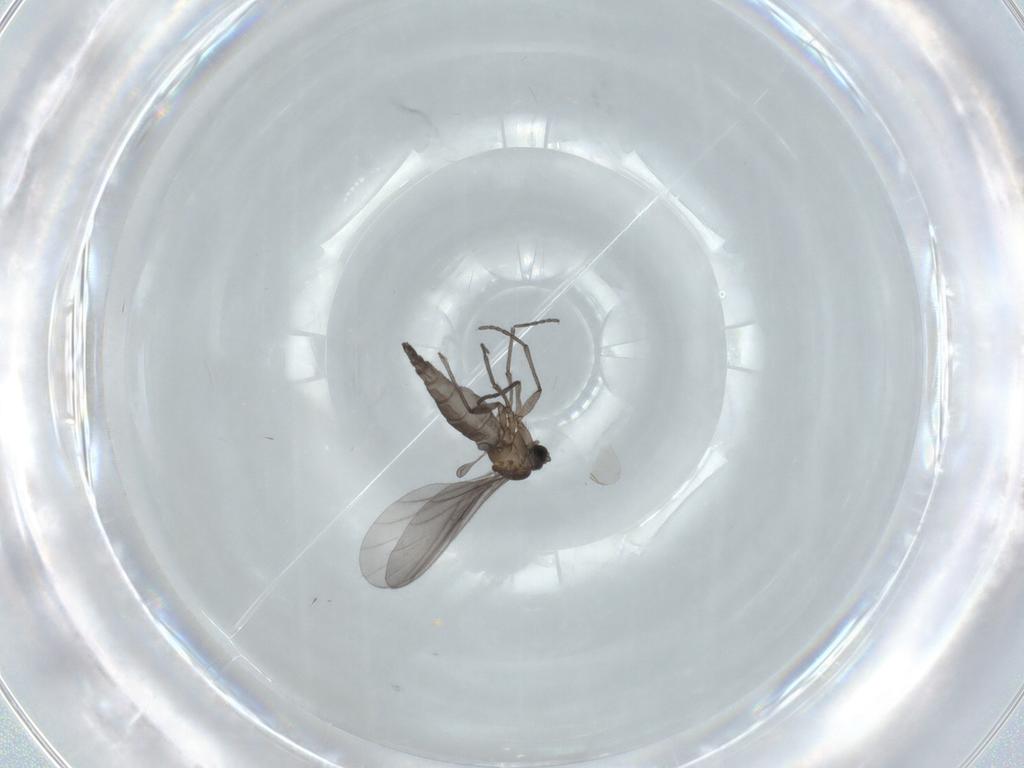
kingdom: Animalia
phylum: Arthropoda
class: Insecta
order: Diptera
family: Sciaridae
